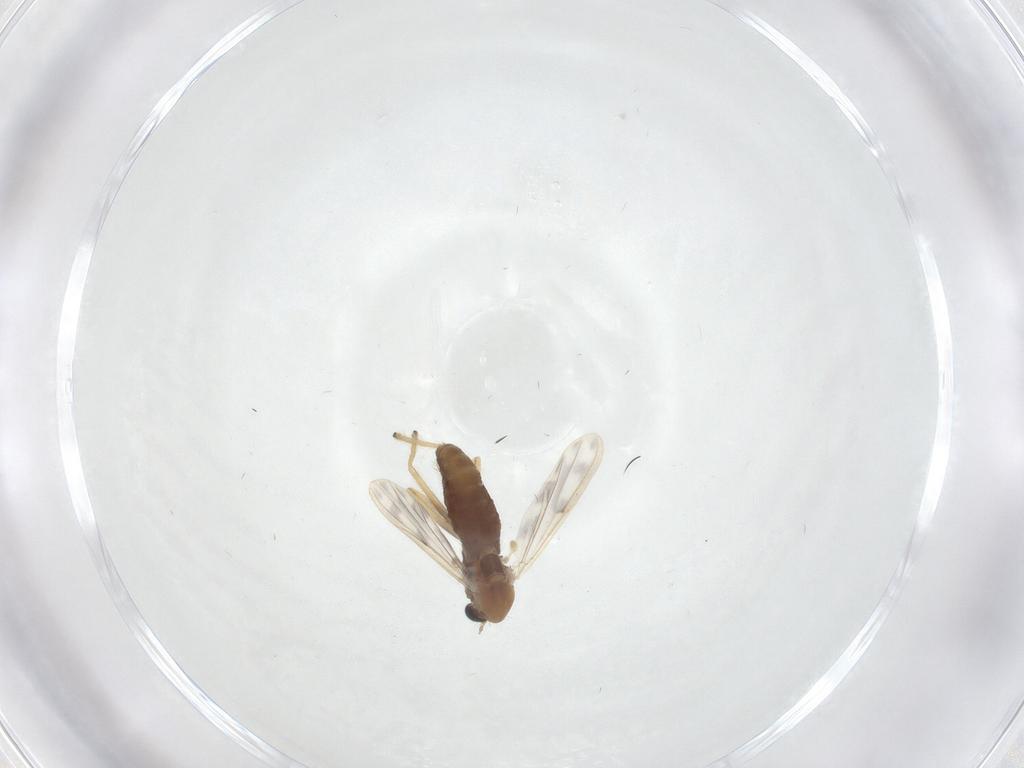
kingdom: Animalia
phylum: Arthropoda
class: Insecta
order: Diptera
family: Chironomidae
